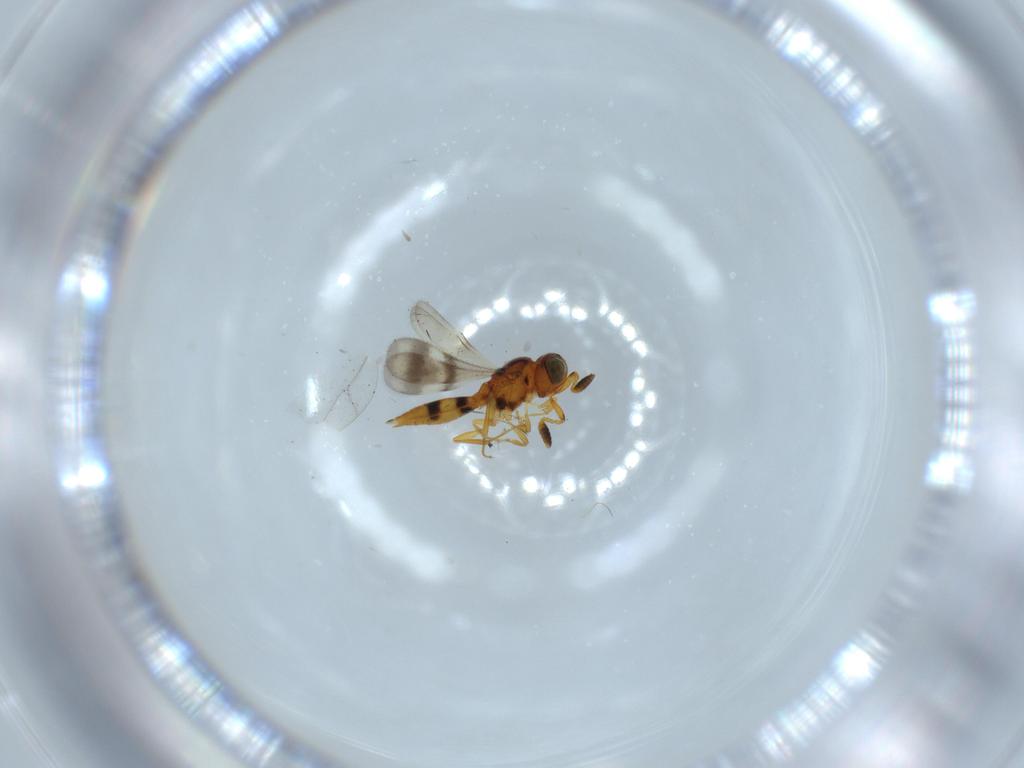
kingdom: Animalia
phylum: Arthropoda
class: Insecta
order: Hymenoptera
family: Scelionidae
